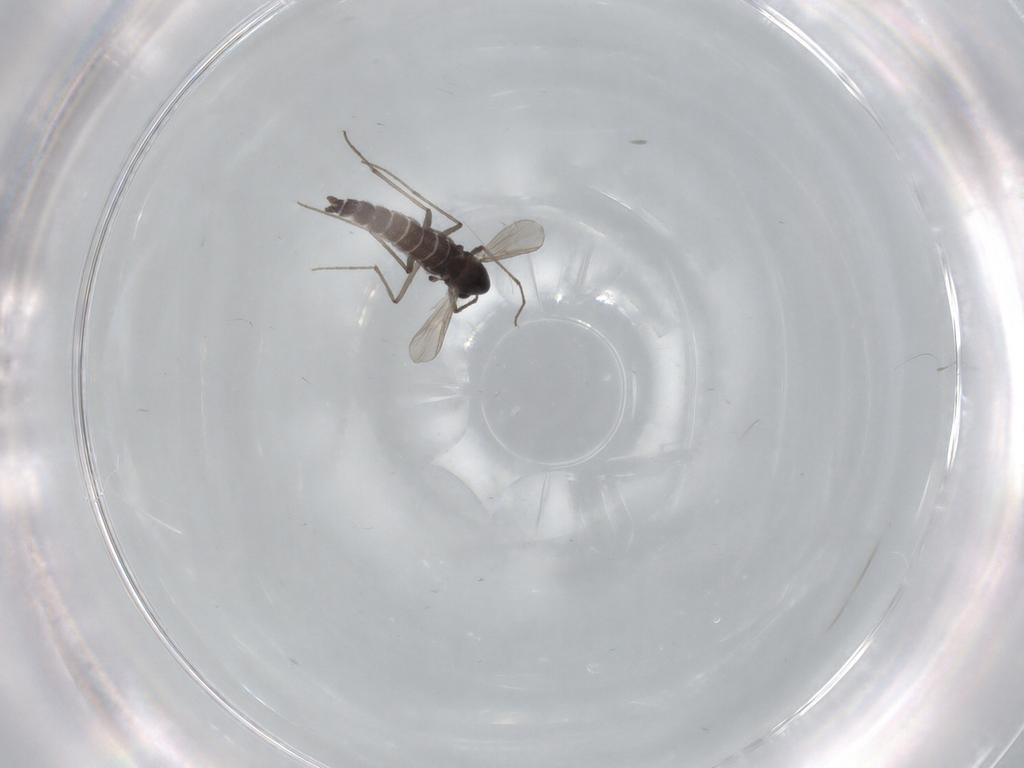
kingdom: Animalia
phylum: Arthropoda
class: Insecta
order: Diptera
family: Chironomidae
